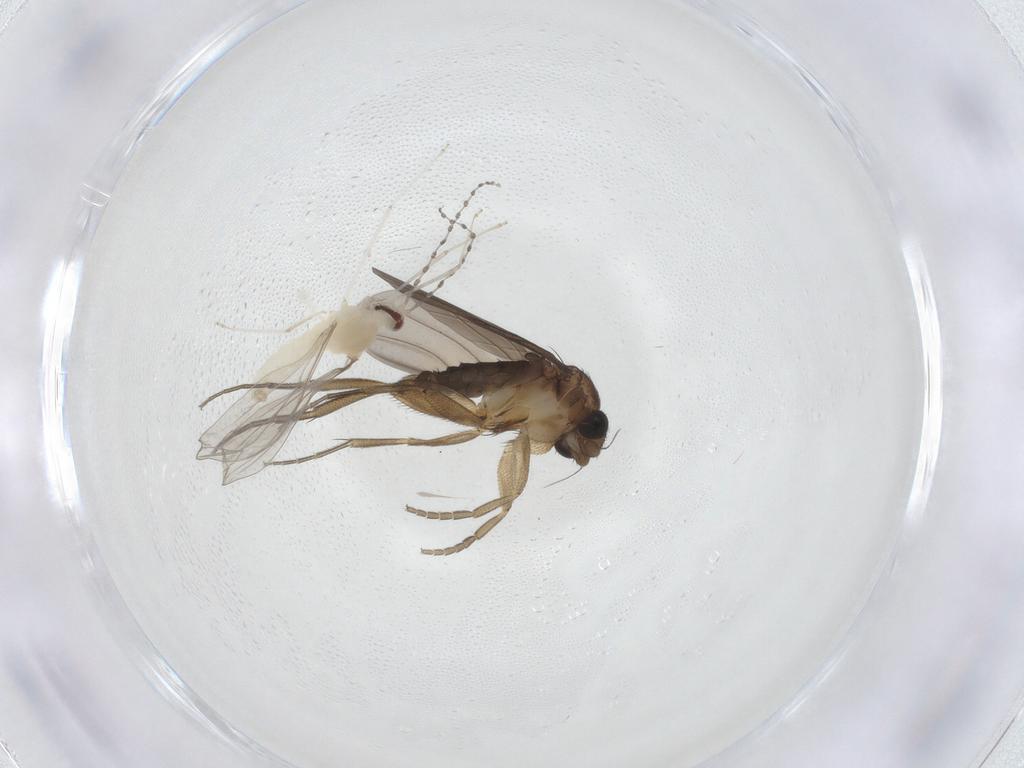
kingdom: Animalia
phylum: Arthropoda
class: Insecta
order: Diptera
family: Cecidomyiidae
